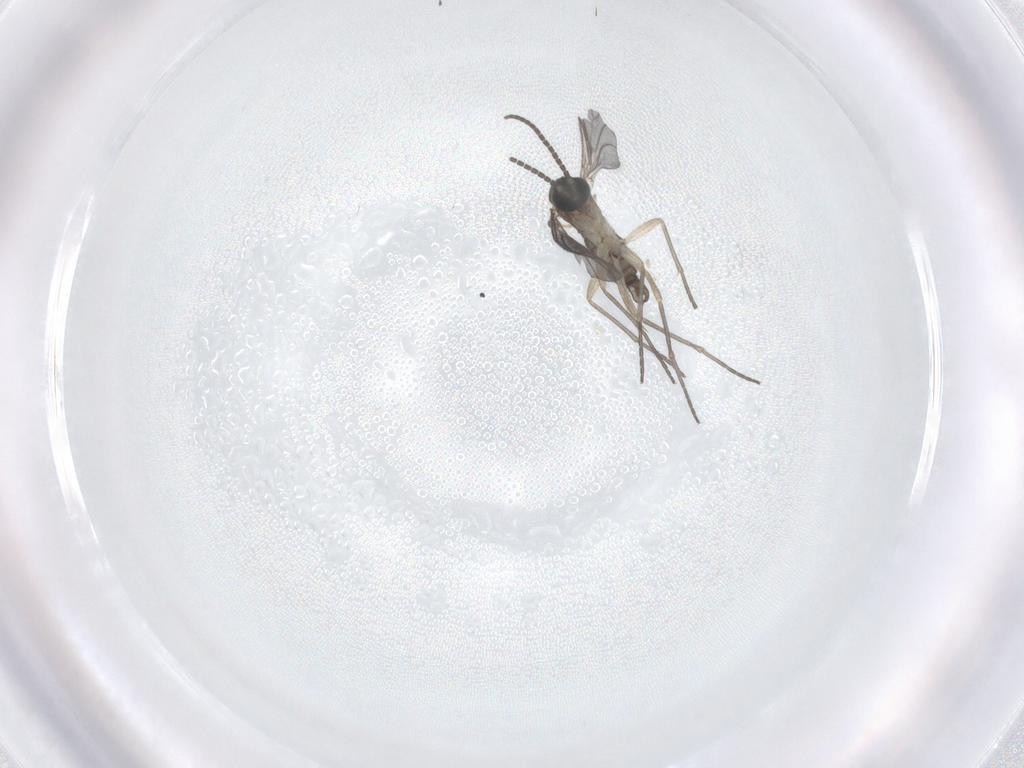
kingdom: Animalia
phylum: Arthropoda
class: Insecta
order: Diptera
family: Sciaridae
